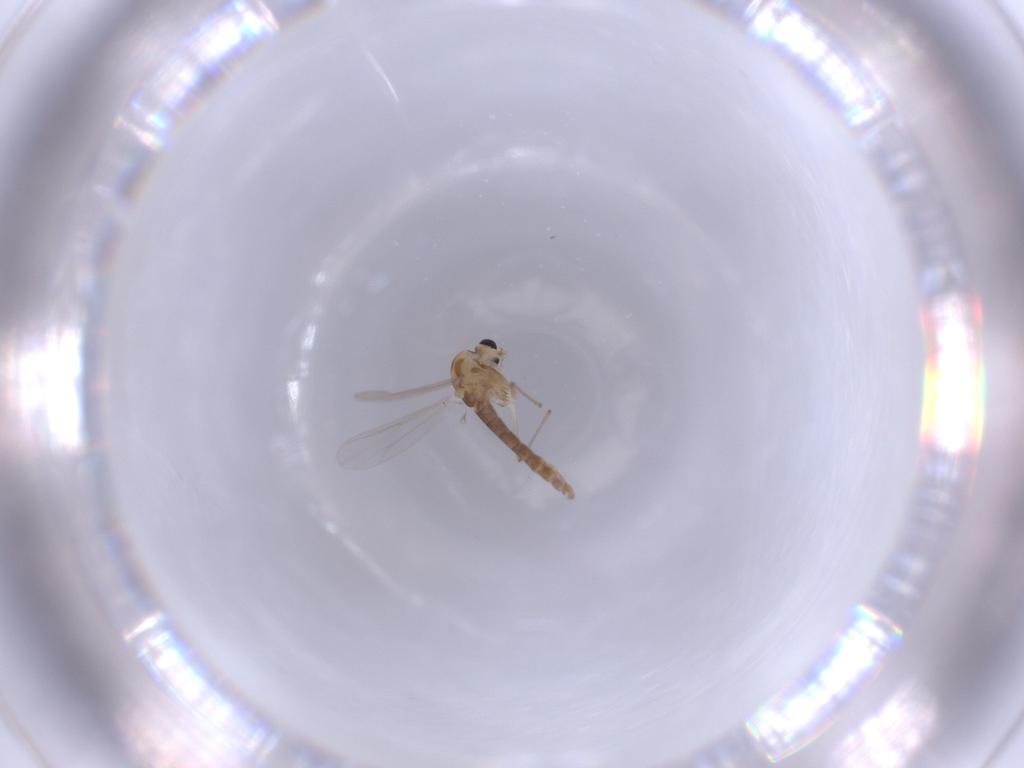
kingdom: Animalia
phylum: Arthropoda
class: Insecta
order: Diptera
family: Chironomidae
